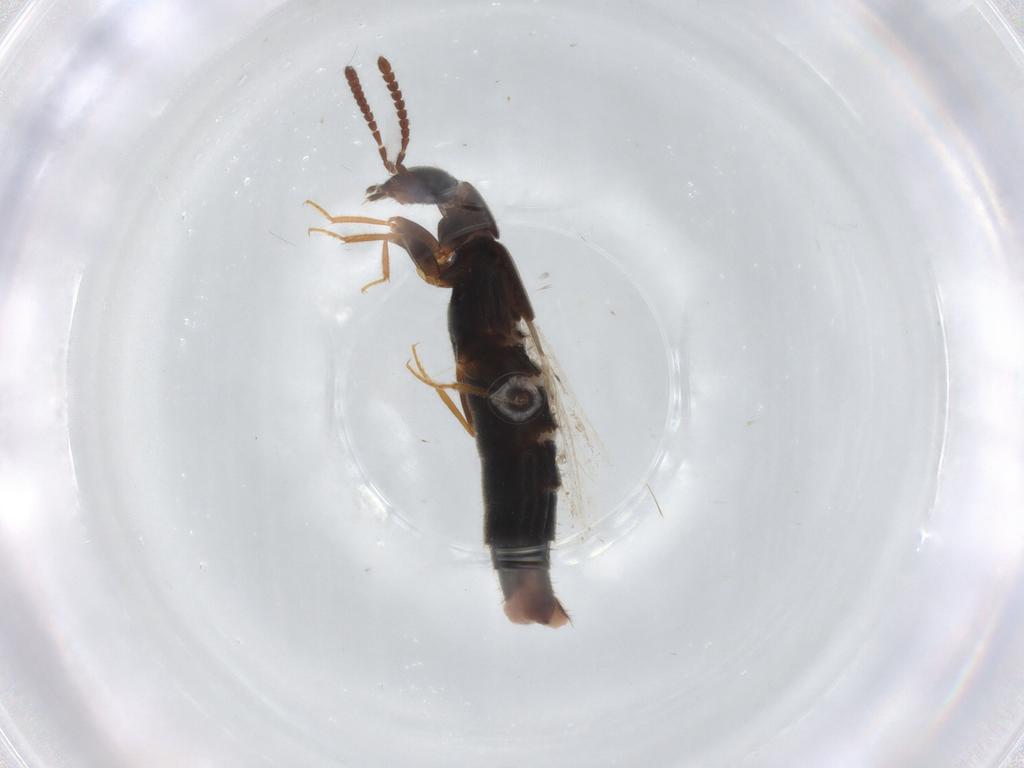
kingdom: Animalia
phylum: Arthropoda
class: Insecta
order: Coleoptera
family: Staphylinidae
